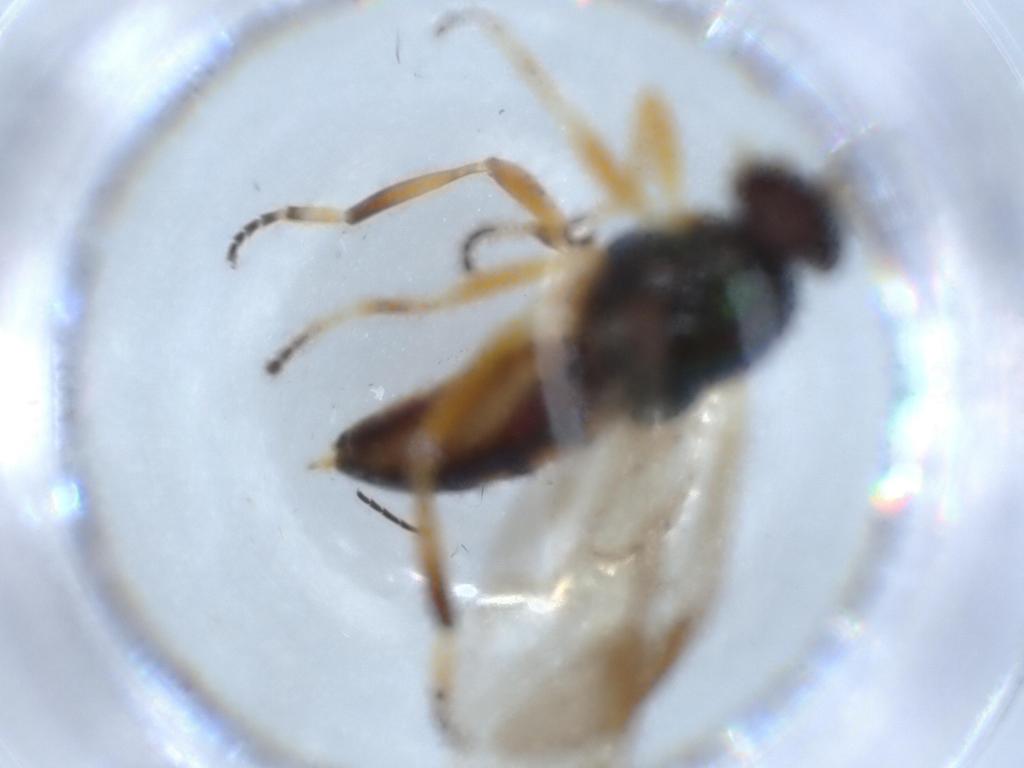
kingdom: Animalia
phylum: Arthropoda
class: Insecta
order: Diptera
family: Stratiomyidae
